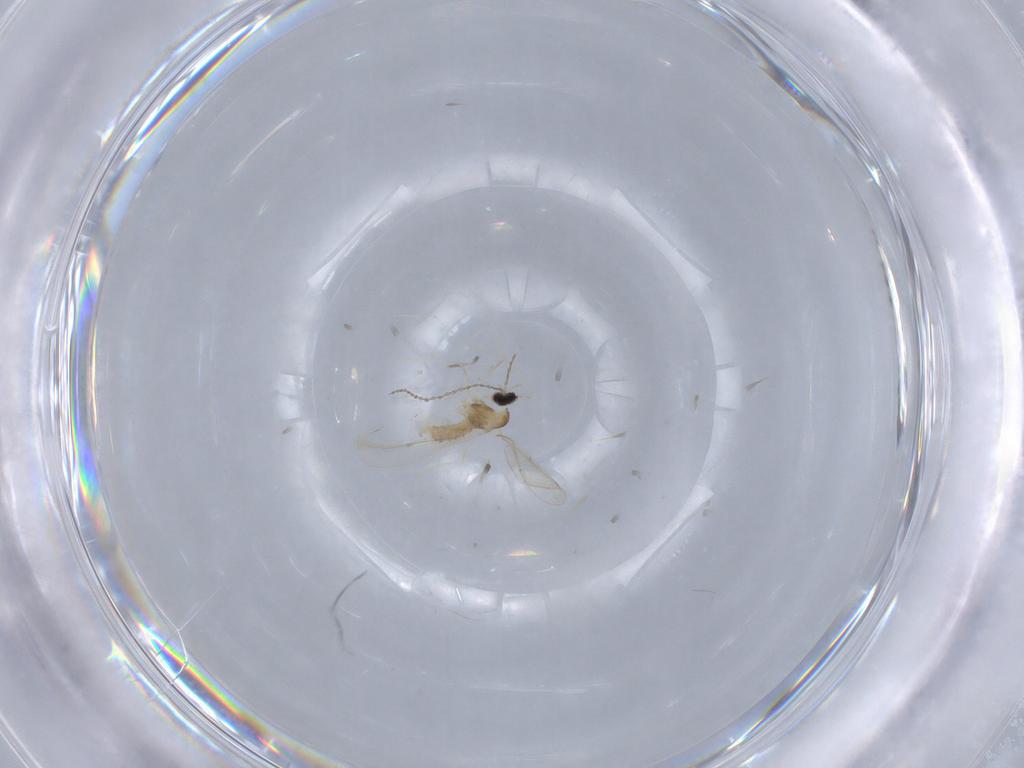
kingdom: Animalia
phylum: Arthropoda
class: Insecta
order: Diptera
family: Cecidomyiidae
